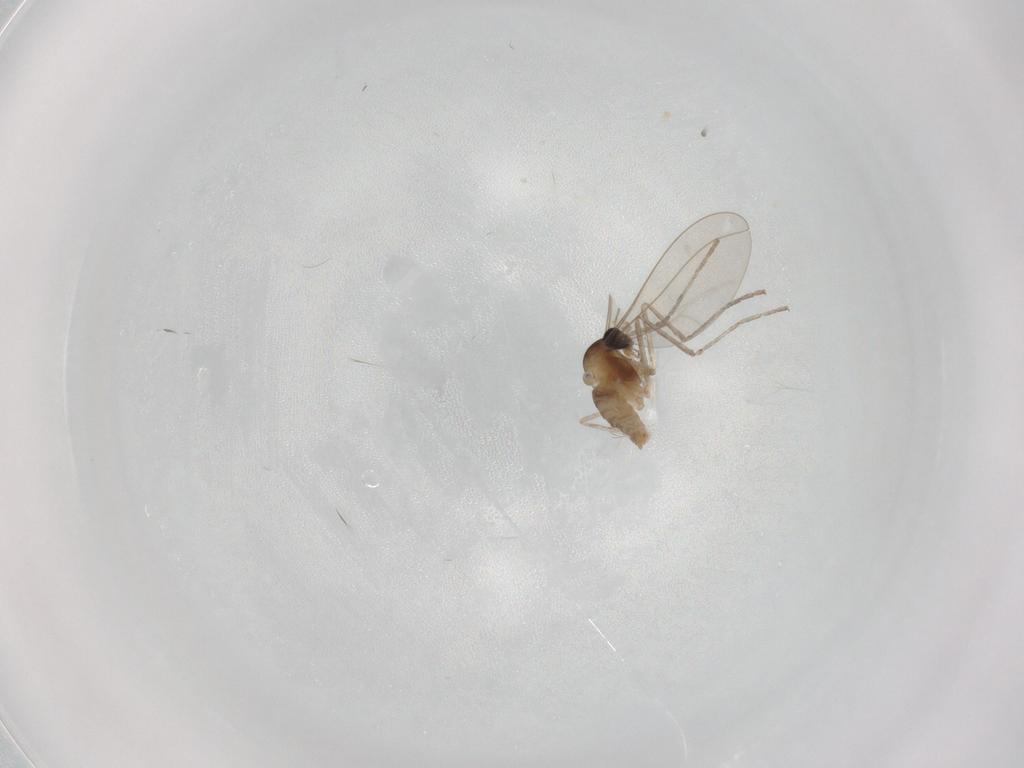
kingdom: Animalia
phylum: Arthropoda
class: Insecta
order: Diptera
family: Cecidomyiidae
